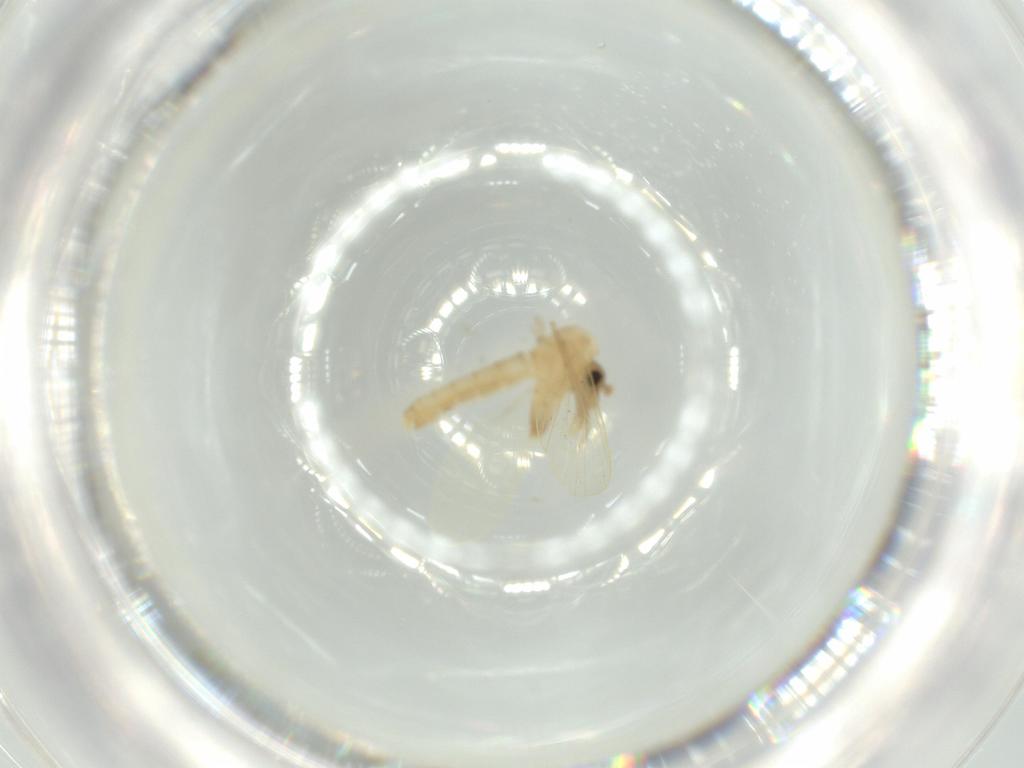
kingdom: Animalia
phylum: Arthropoda
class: Insecta
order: Diptera
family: Psychodidae
